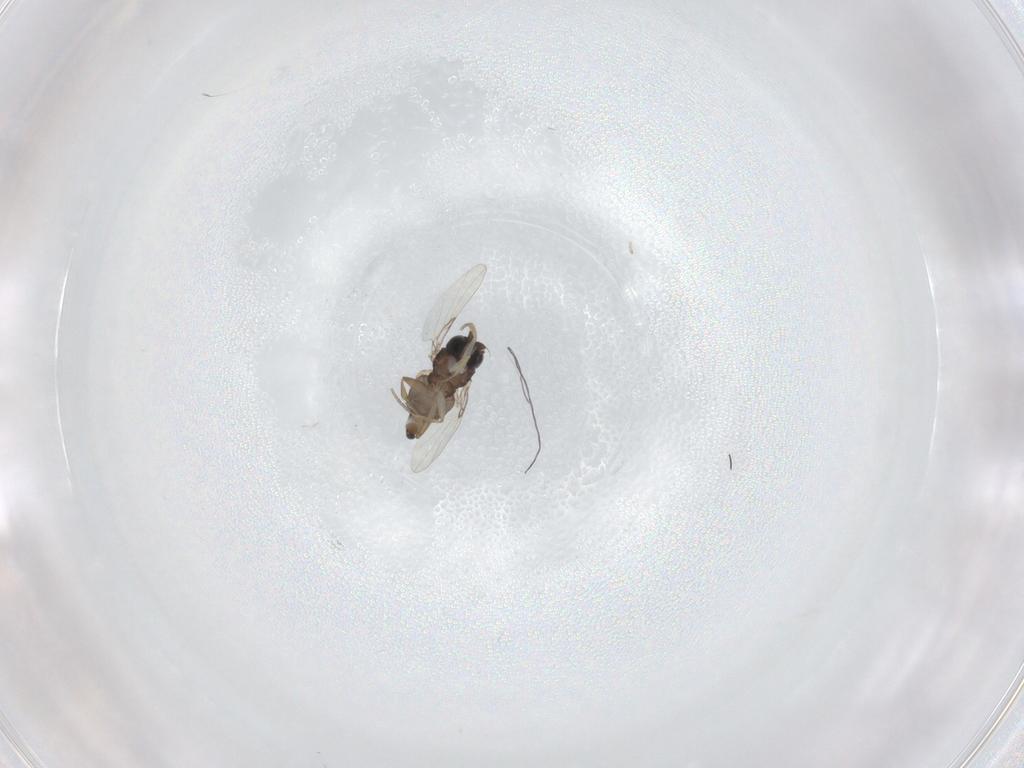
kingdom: Animalia
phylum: Arthropoda
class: Insecta
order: Diptera
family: Phoridae
